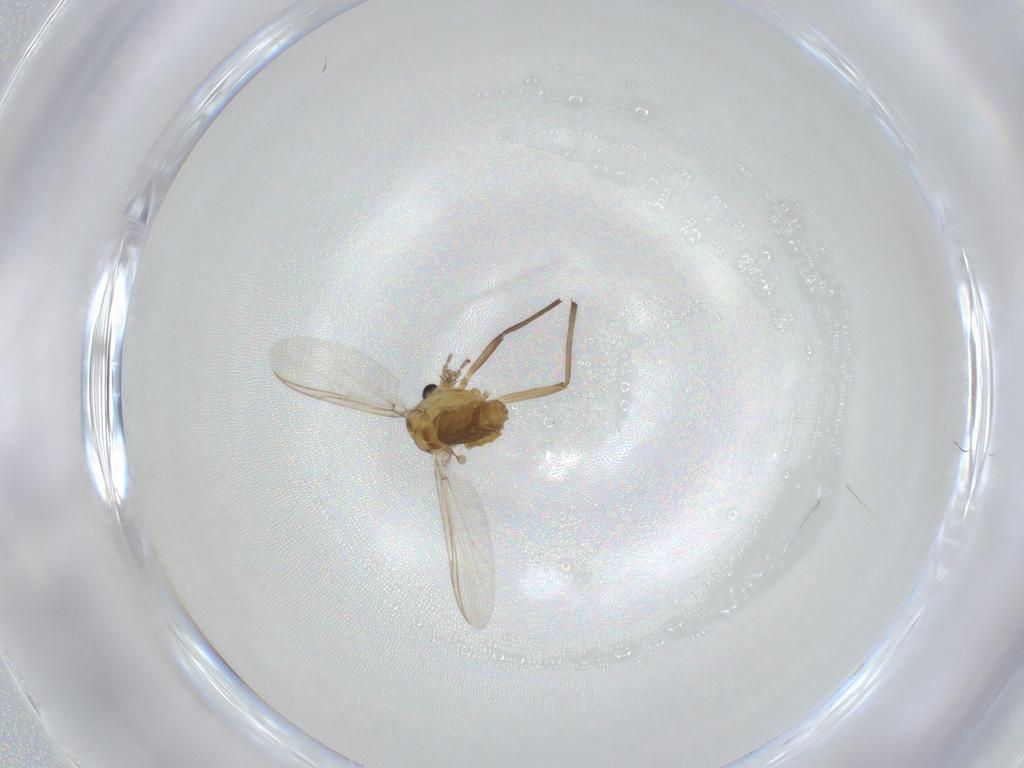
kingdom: Animalia
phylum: Arthropoda
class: Insecta
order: Diptera
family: Chironomidae
